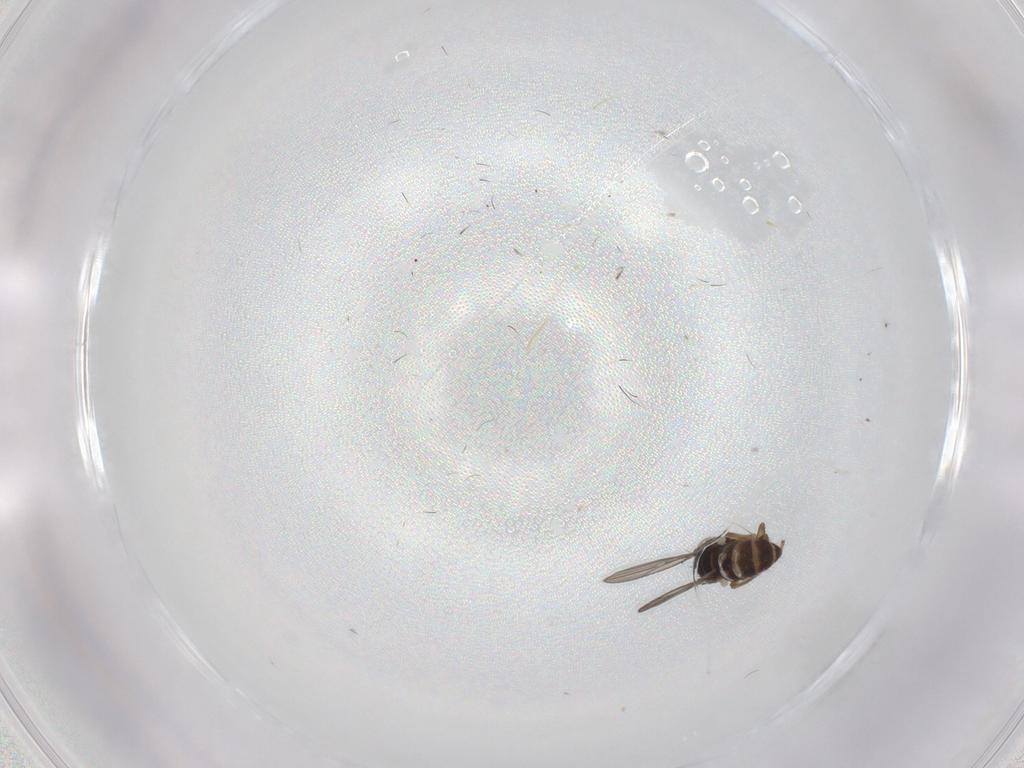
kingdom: Animalia
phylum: Arthropoda
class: Insecta
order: Diptera
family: Ephydridae
